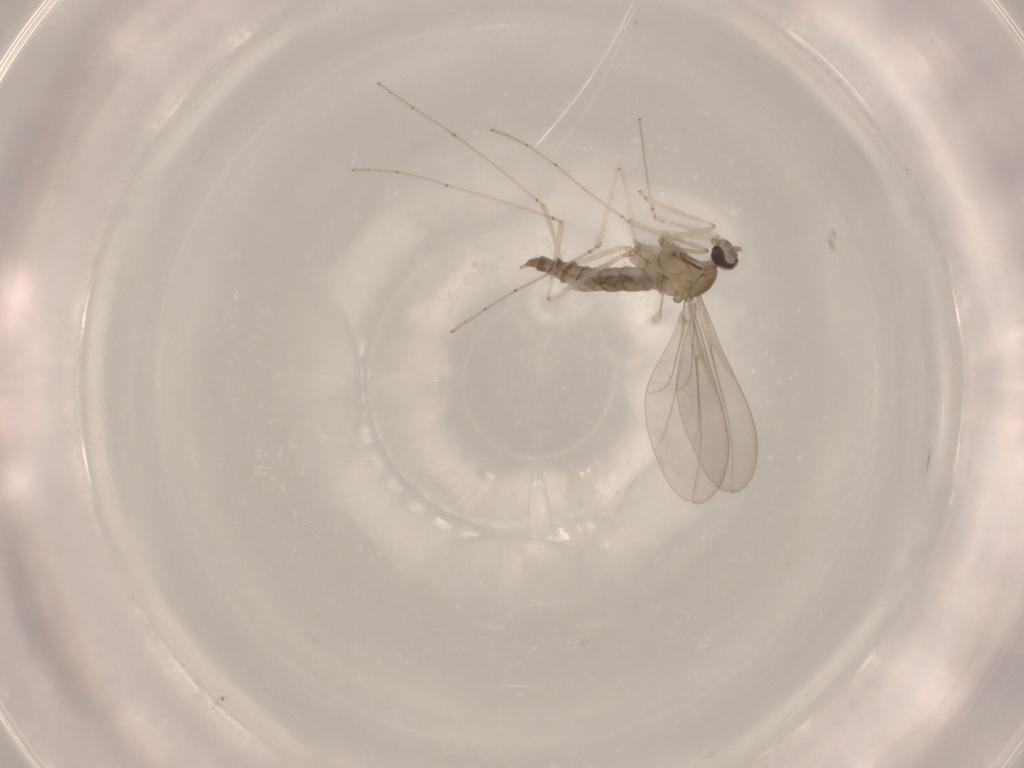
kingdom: Animalia
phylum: Arthropoda
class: Insecta
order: Diptera
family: Cecidomyiidae
